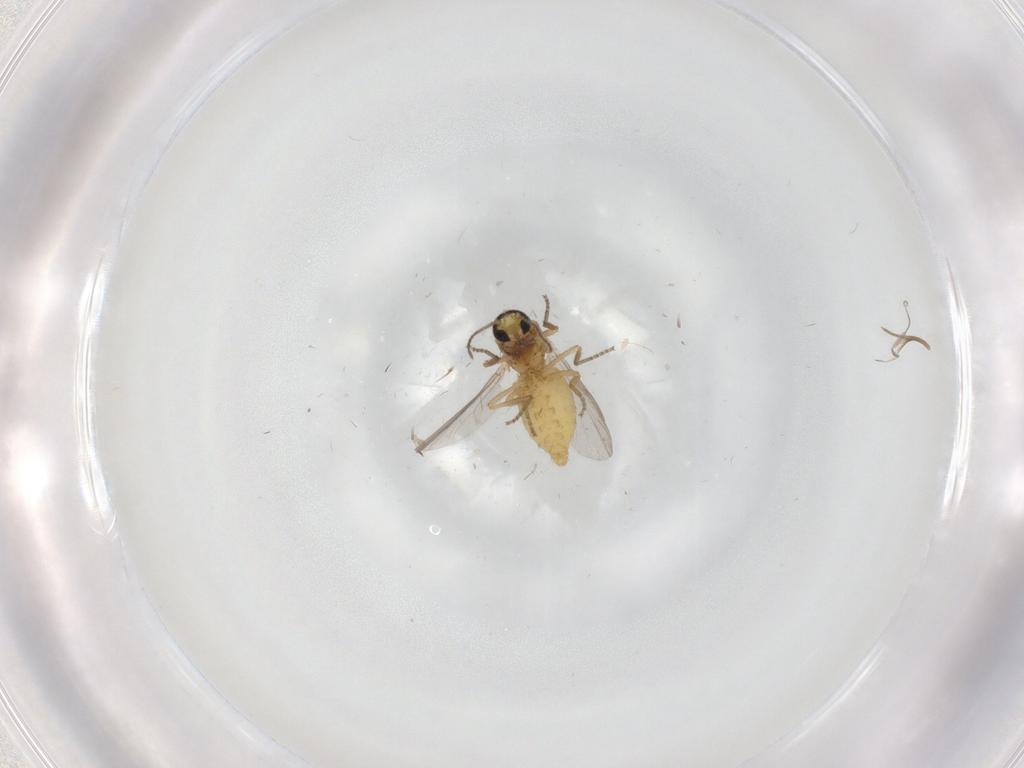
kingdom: Animalia
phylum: Arthropoda
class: Insecta
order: Diptera
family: Ceratopogonidae
